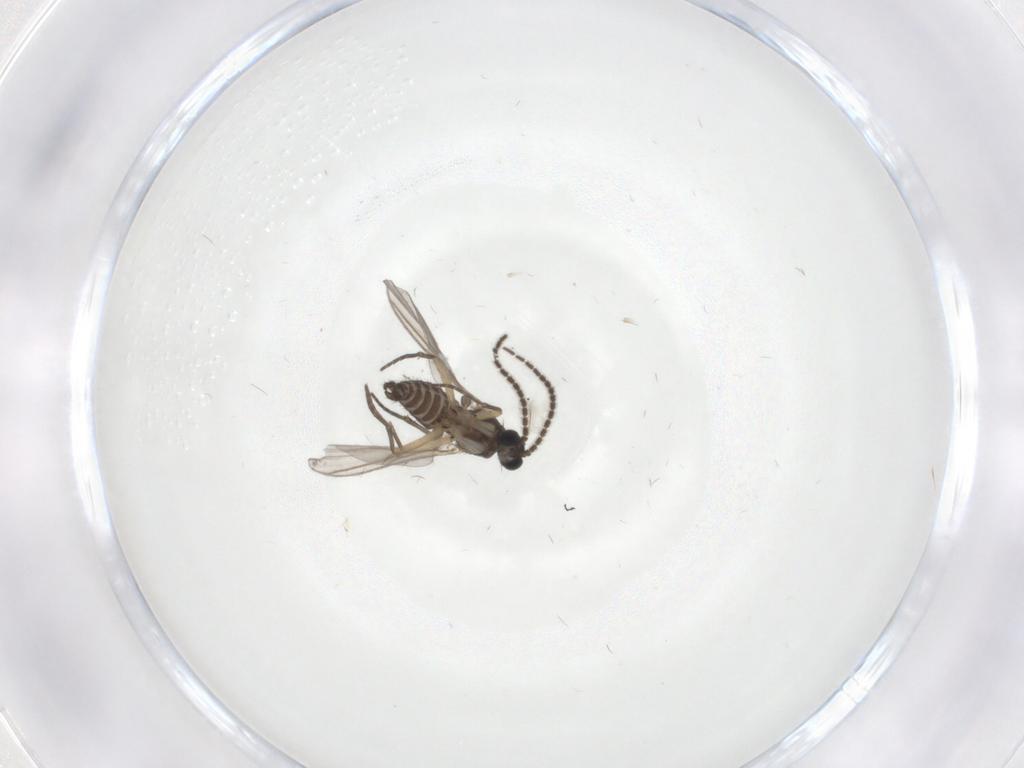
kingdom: Animalia
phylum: Arthropoda
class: Insecta
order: Diptera
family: Sciaridae
